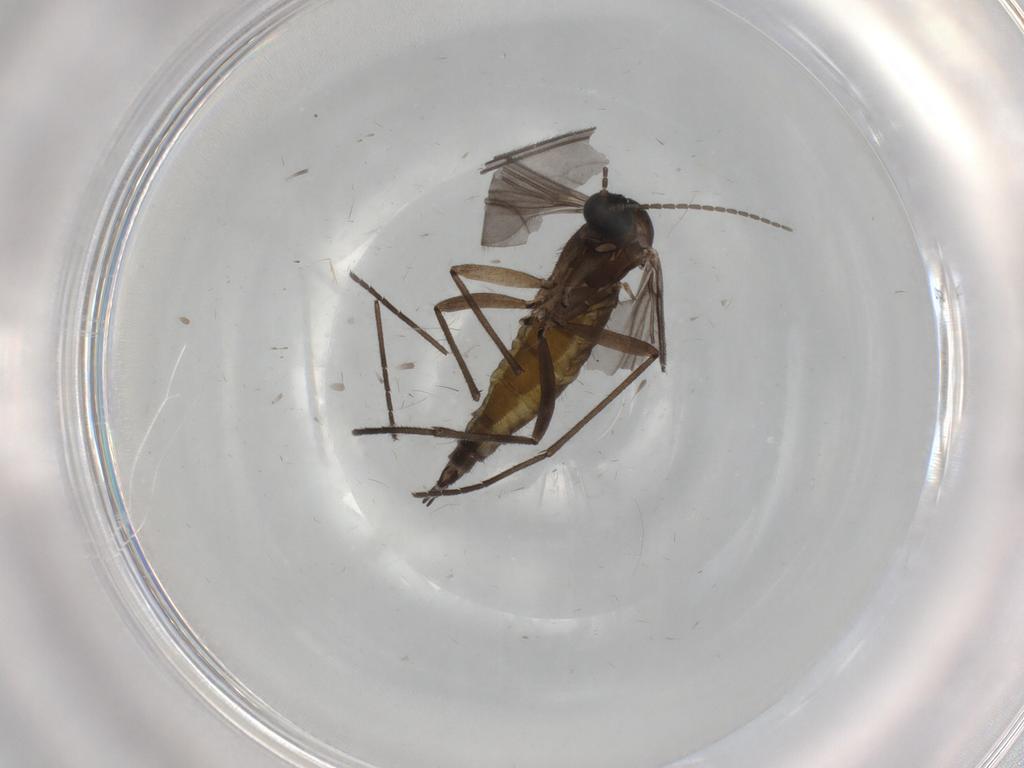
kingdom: Animalia
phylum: Arthropoda
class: Insecta
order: Diptera
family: Sciaridae
